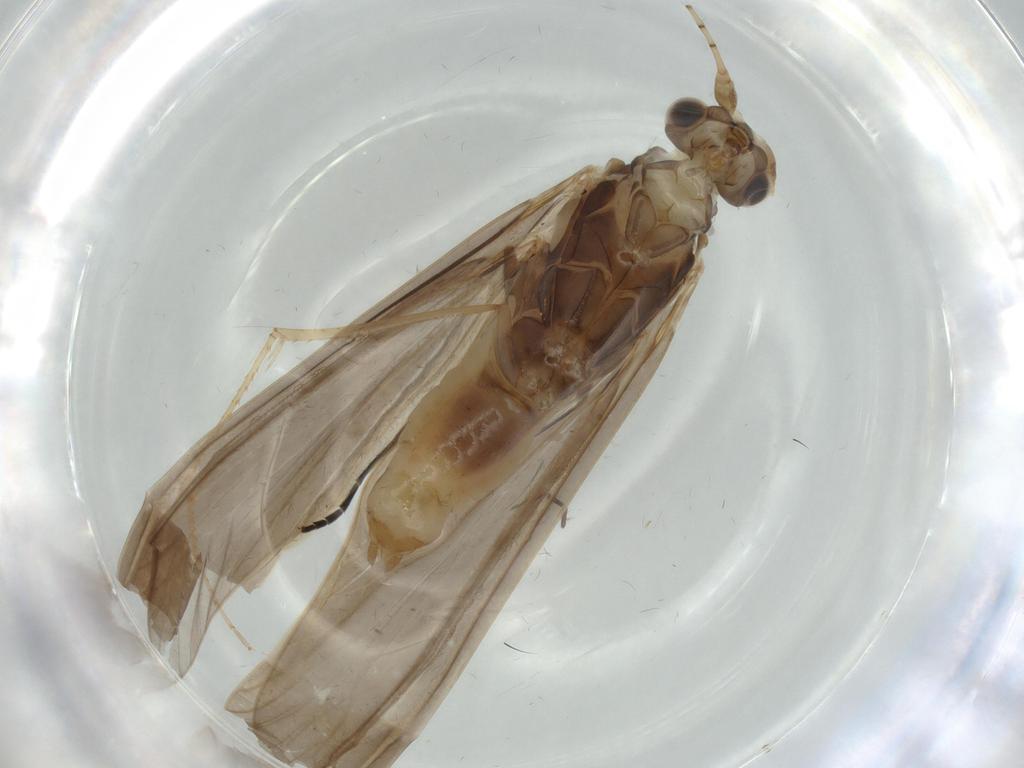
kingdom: Animalia
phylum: Arthropoda
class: Insecta
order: Trichoptera
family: Leptoceridae
